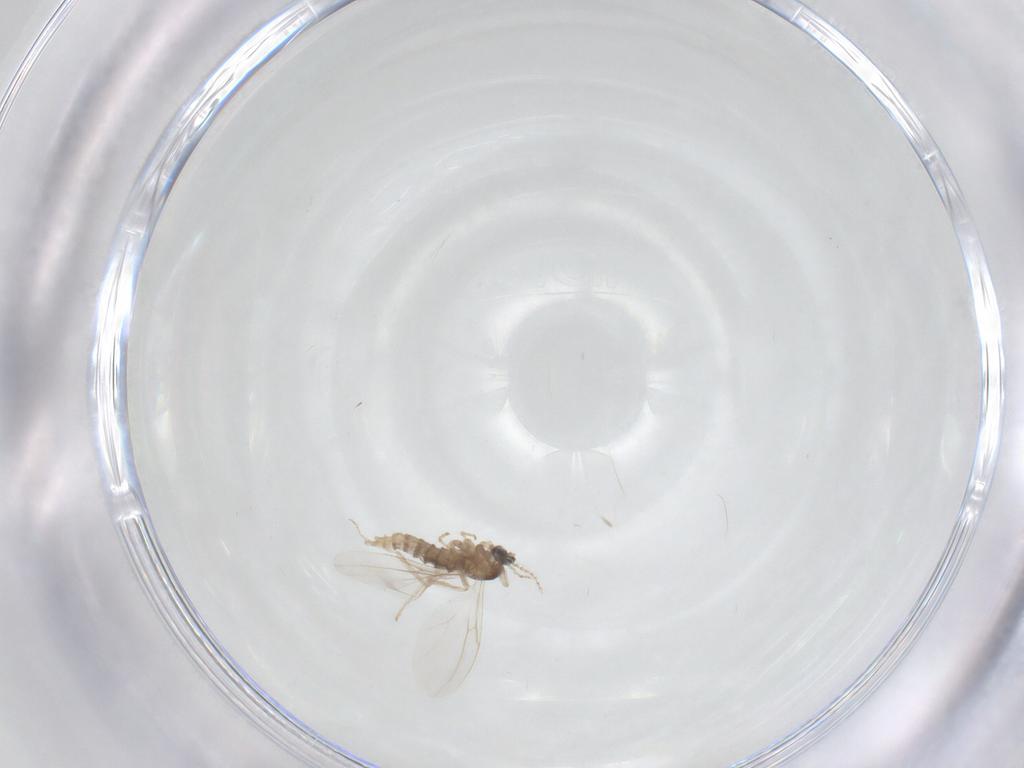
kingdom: Animalia
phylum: Arthropoda
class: Insecta
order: Diptera
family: Cecidomyiidae
